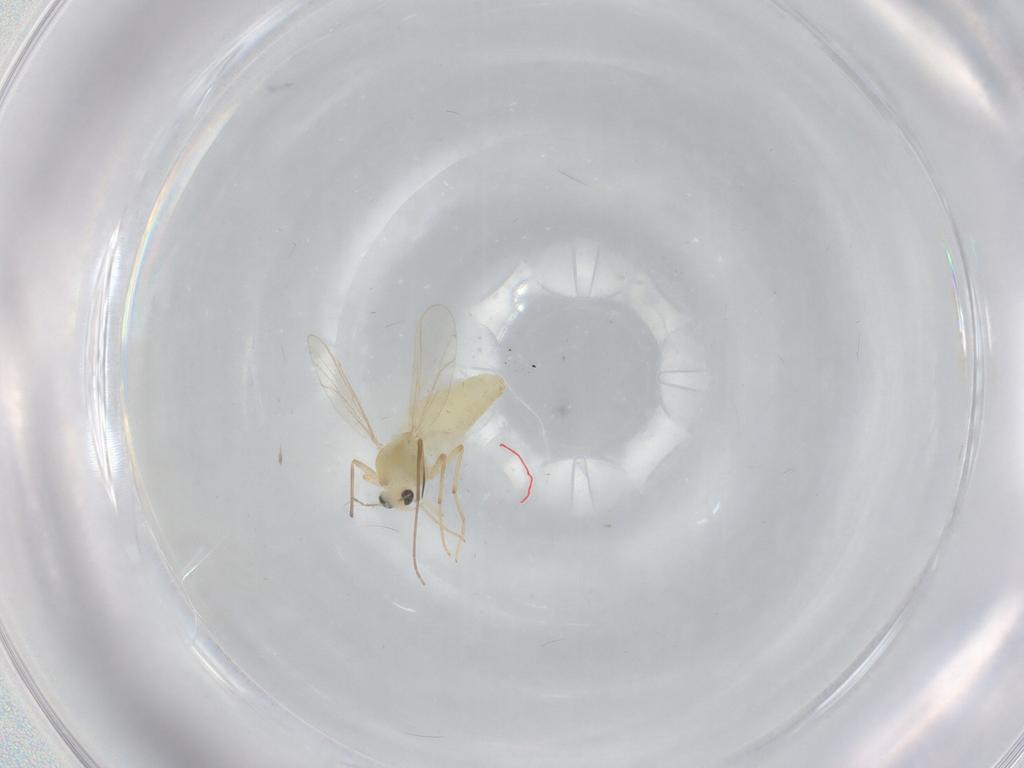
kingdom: Animalia
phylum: Arthropoda
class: Insecta
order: Diptera
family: Chironomidae
